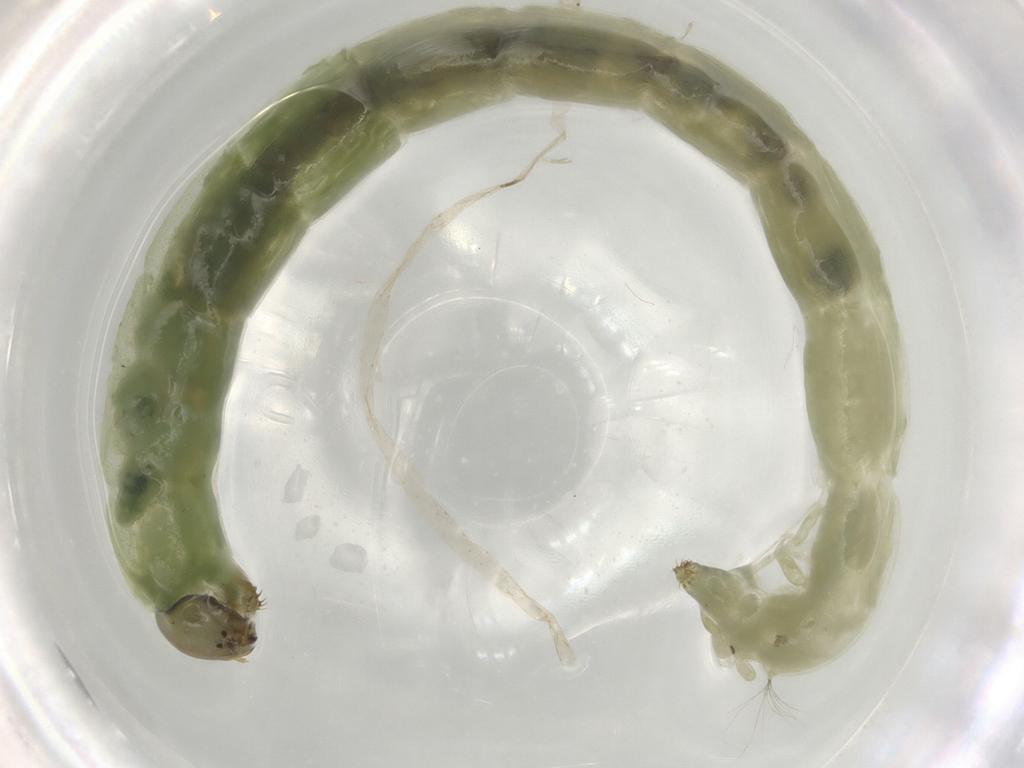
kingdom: Animalia
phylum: Arthropoda
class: Insecta
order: Diptera
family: Chironomidae
